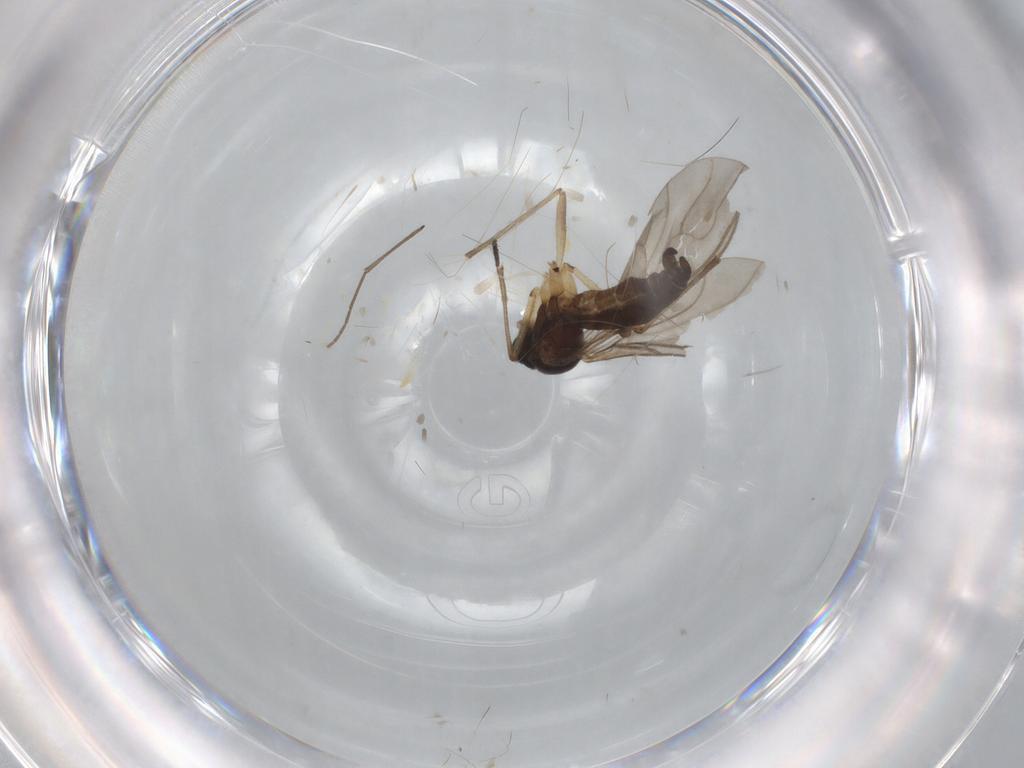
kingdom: Animalia
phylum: Arthropoda
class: Insecta
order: Diptera
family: Sciaridae
